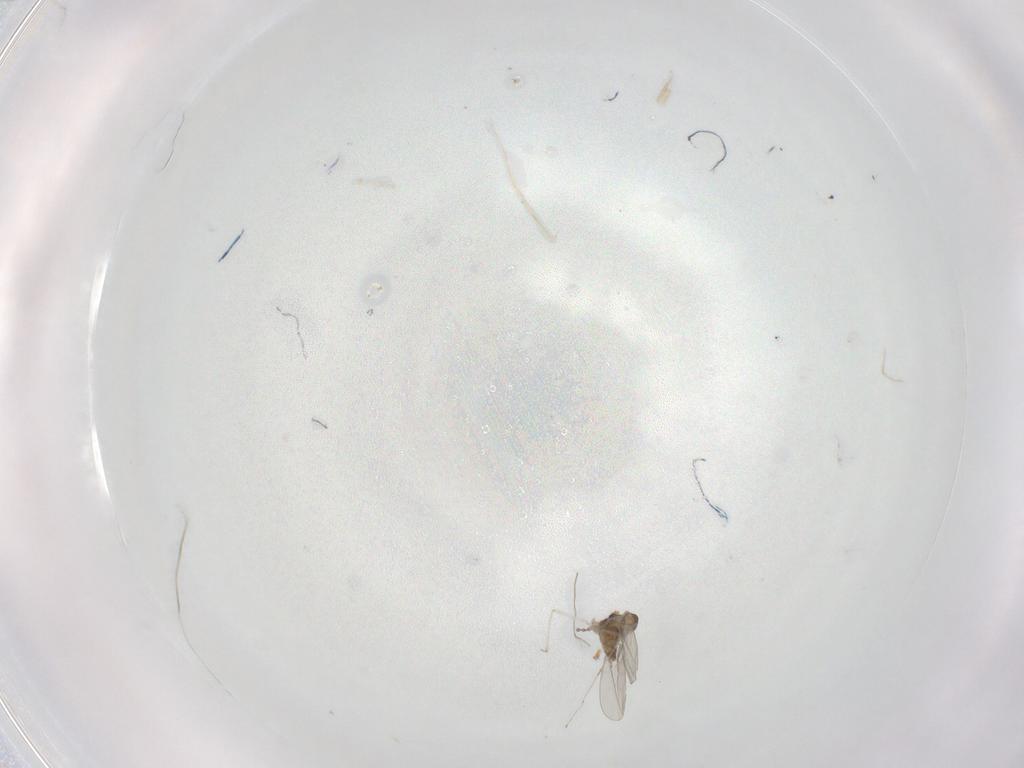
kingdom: Animalia
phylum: Arthropoda
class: Insecta
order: Diptera
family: Cecidomyiidae
